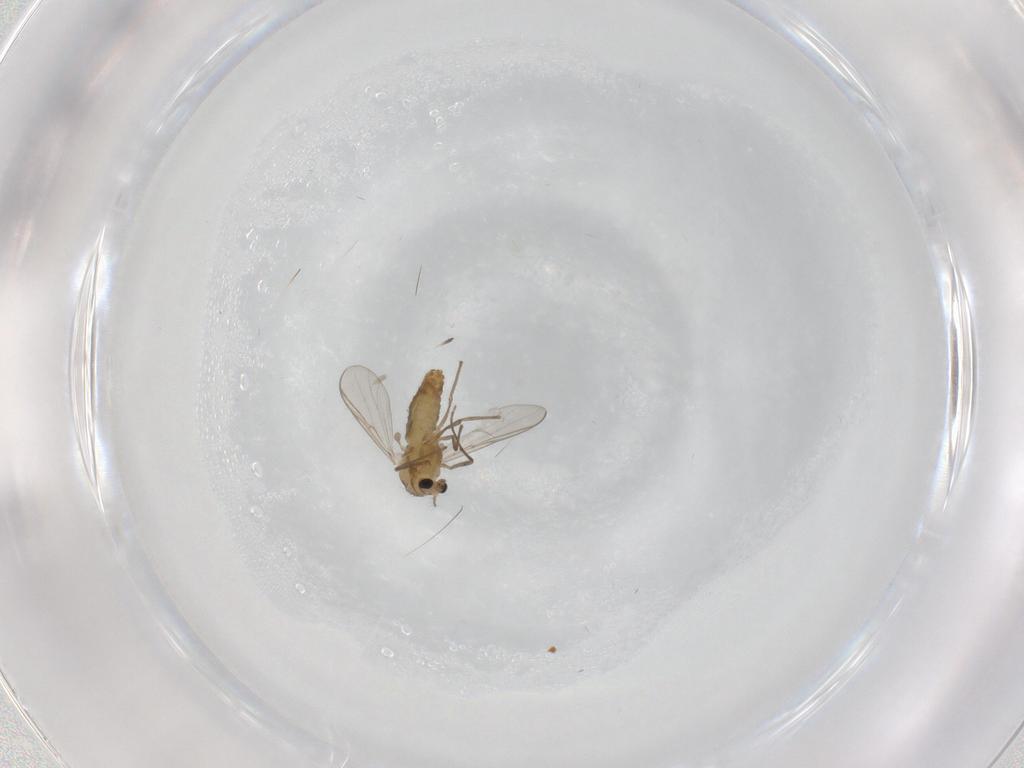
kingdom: Animalia
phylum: Arthropoda
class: Insecta
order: Diptera
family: Chironomidae
